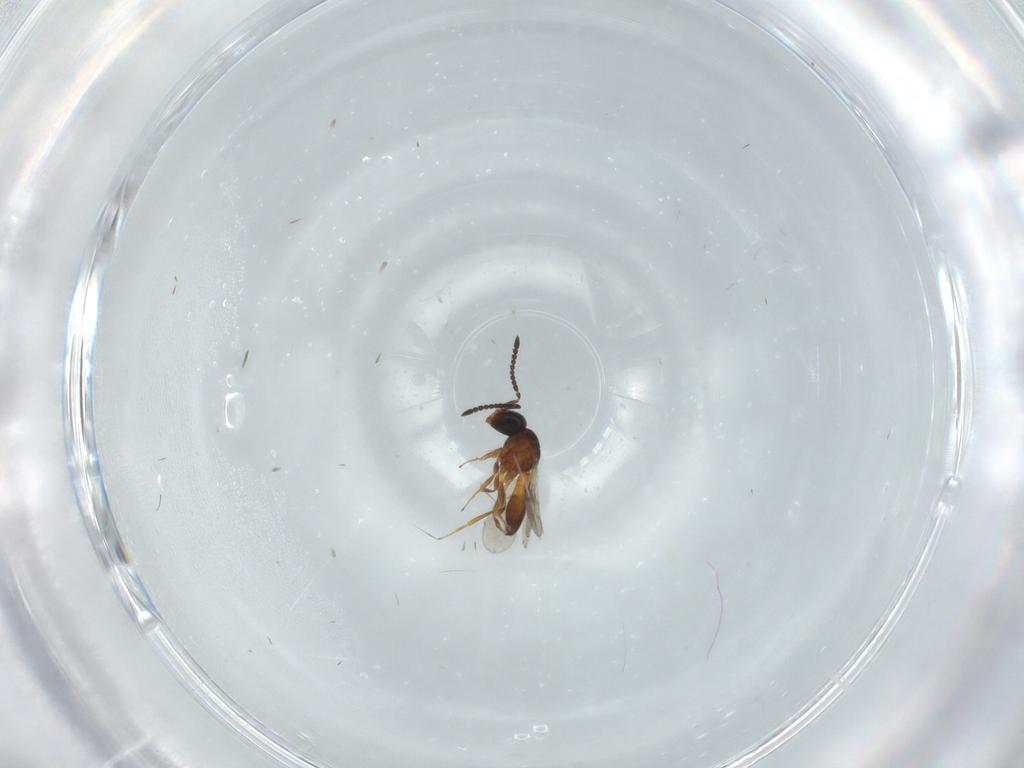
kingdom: Animalia
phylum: Arthropoda
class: Insecta
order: Hymenoptera
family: Scelionidae
